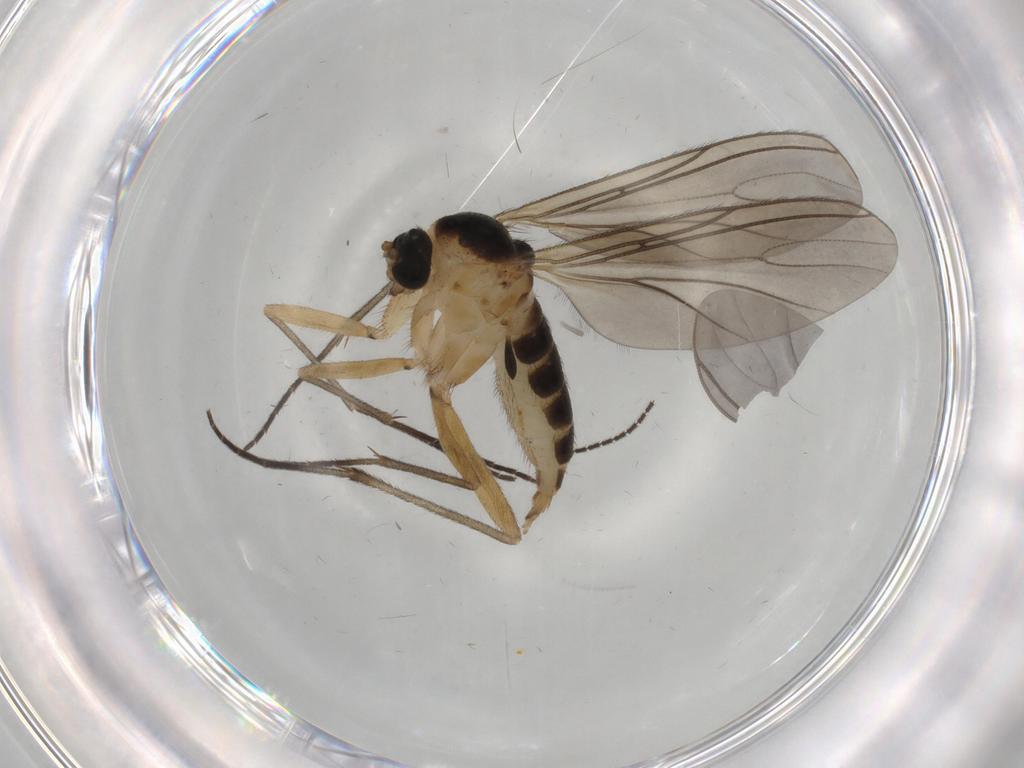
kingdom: Animalia
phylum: Arthropoda
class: Insecta
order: Diptera
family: Sciaridae
